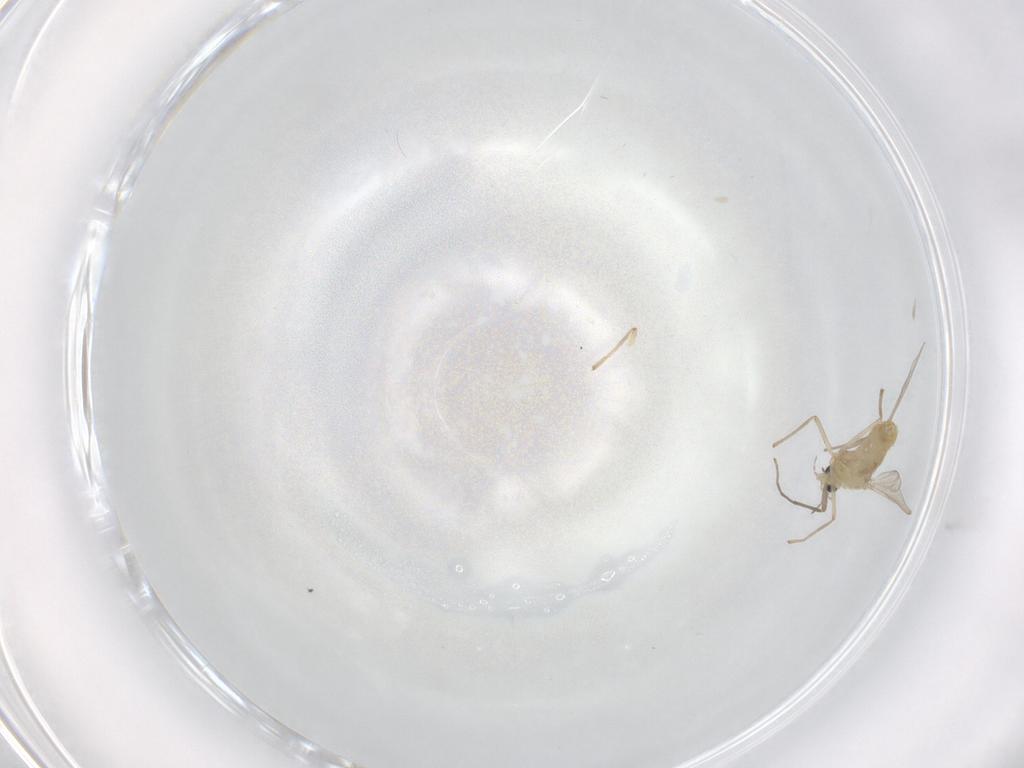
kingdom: Animalia
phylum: Arthropoda
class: Insecta
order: Diptera
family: Chironomidae
